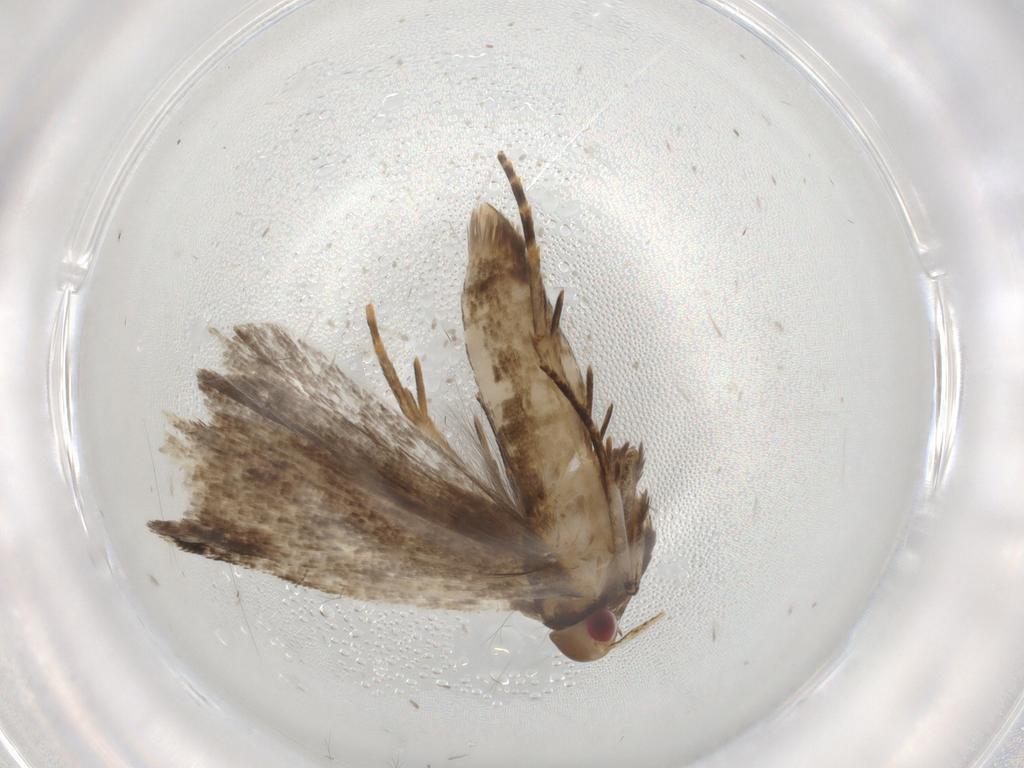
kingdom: Animalia
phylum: Arthropoda
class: Insecta
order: Lepidoptera
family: Gelechiidae
